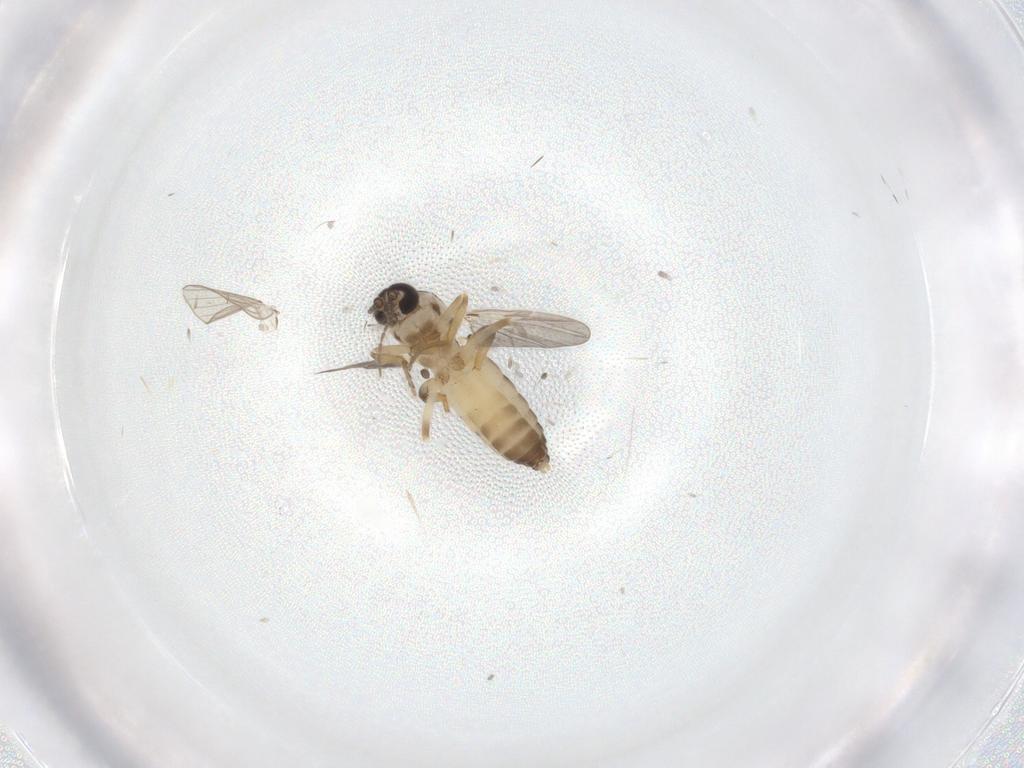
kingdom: Animalia
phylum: Arthropoda
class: Insecta
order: Diptera
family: Ceratopogonidae
